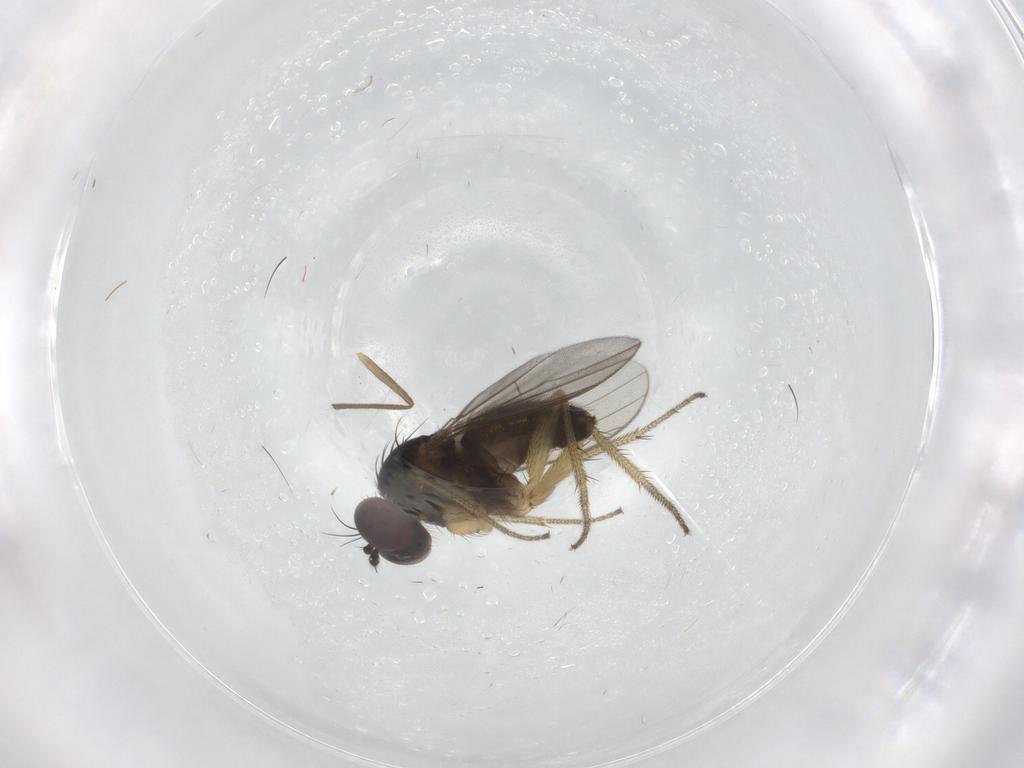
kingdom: Animalia
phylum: Arthropoda
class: Insecta
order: Diptera
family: Dolichopodidae
